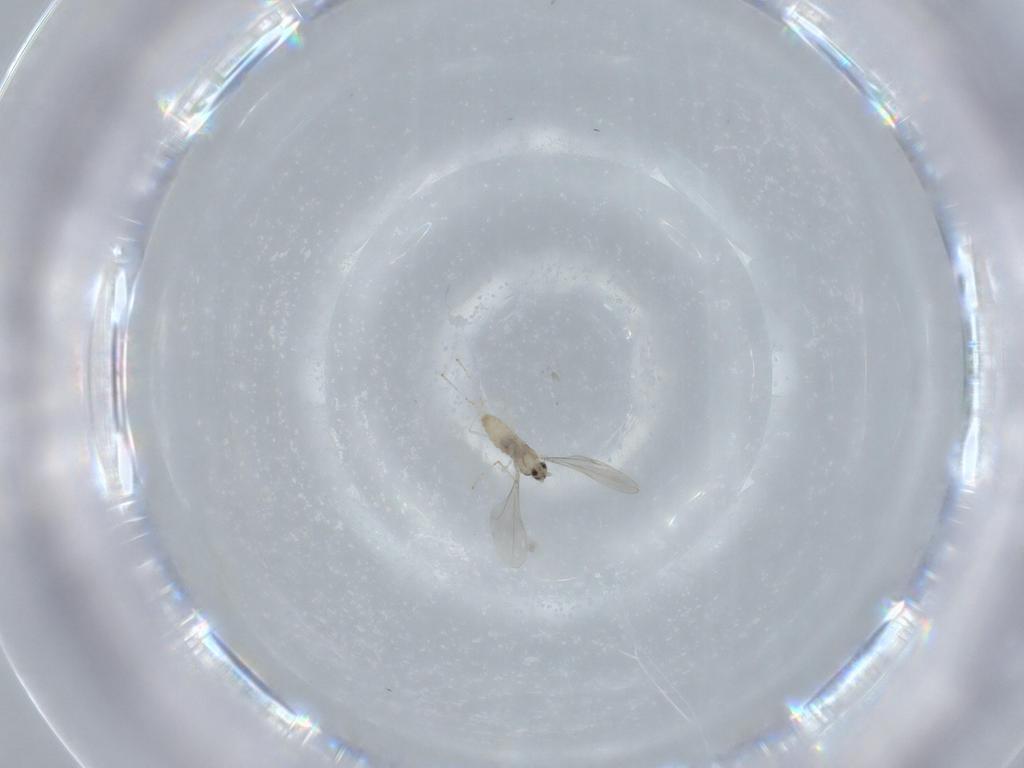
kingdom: Animalia
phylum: Arthropoda
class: Insecta
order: Diptera
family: Cecidomyiidae
